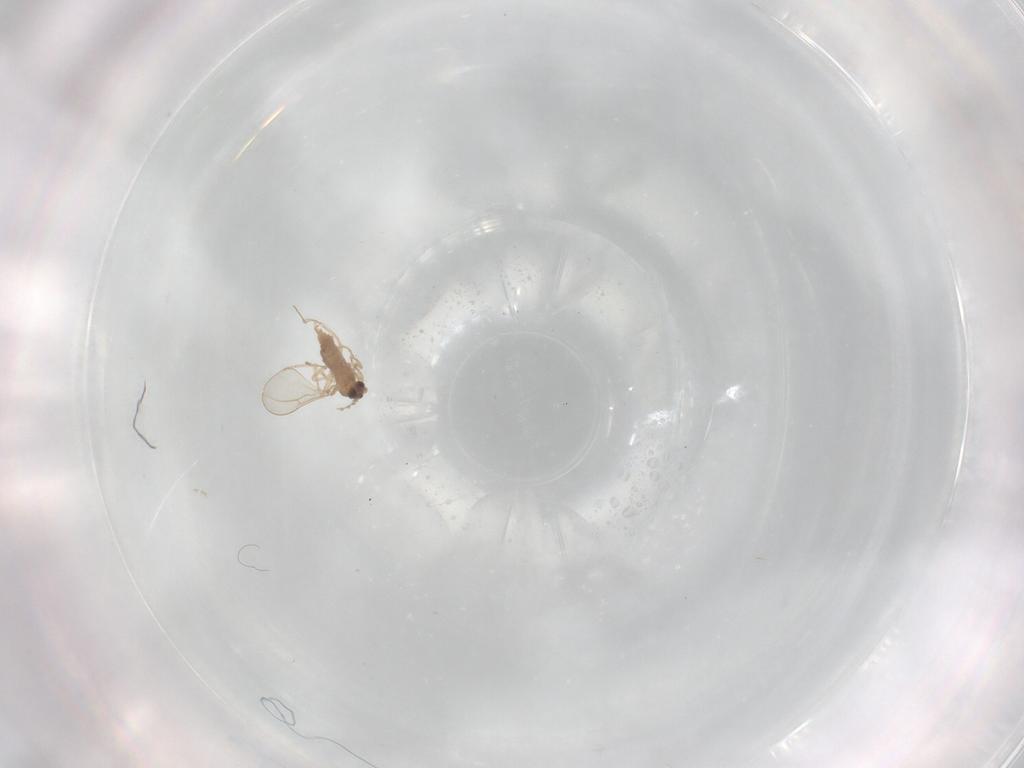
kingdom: Animalia
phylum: Arthropoda
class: Insecta
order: Diptera
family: Cecidomyiidae
